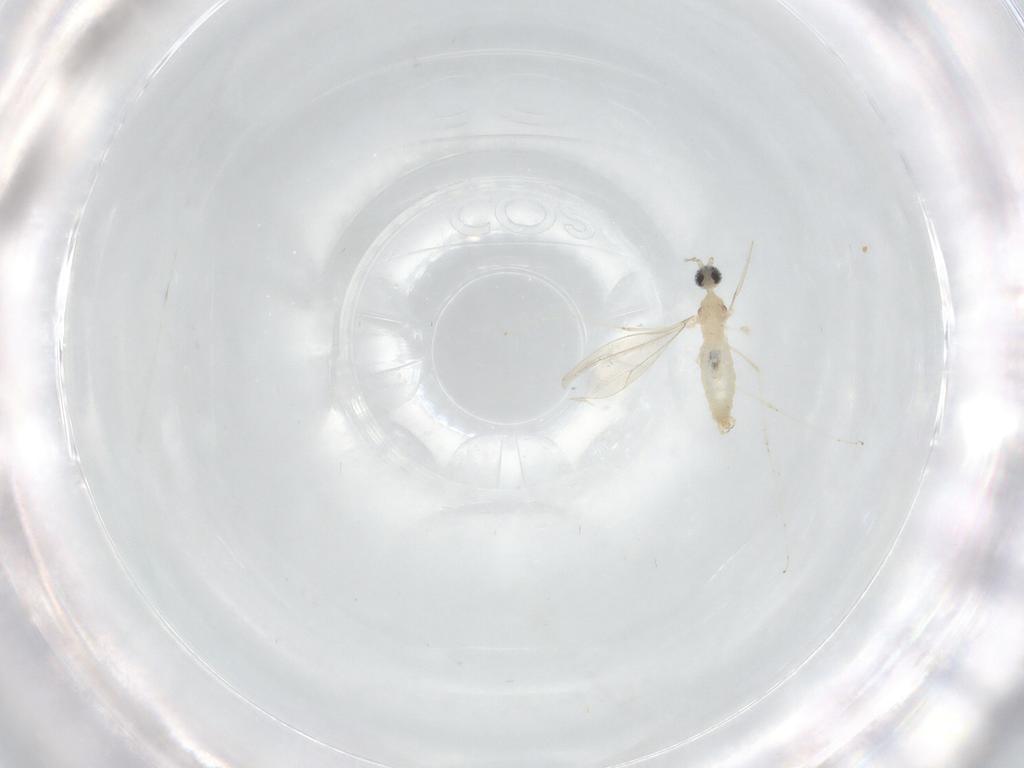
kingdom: Animalia
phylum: Arthropoda
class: Insecta
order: Diptera
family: Cecidomyiidae
